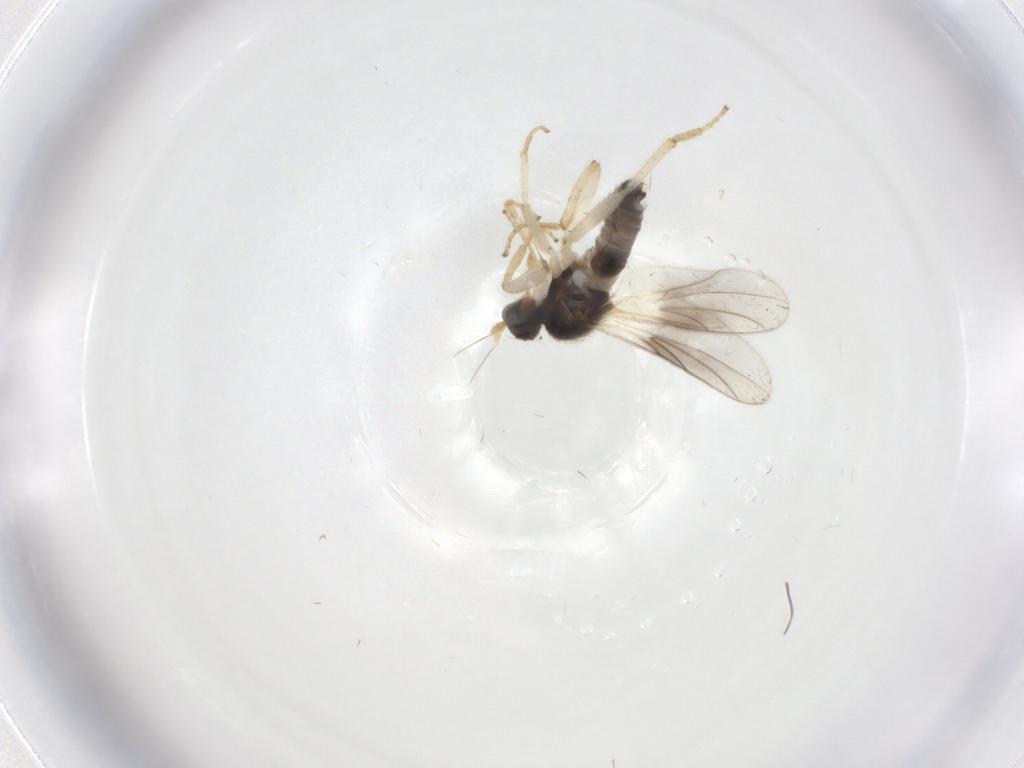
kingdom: Animalia
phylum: Arthropoda
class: Insecta
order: Diptera
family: Hybotidae
